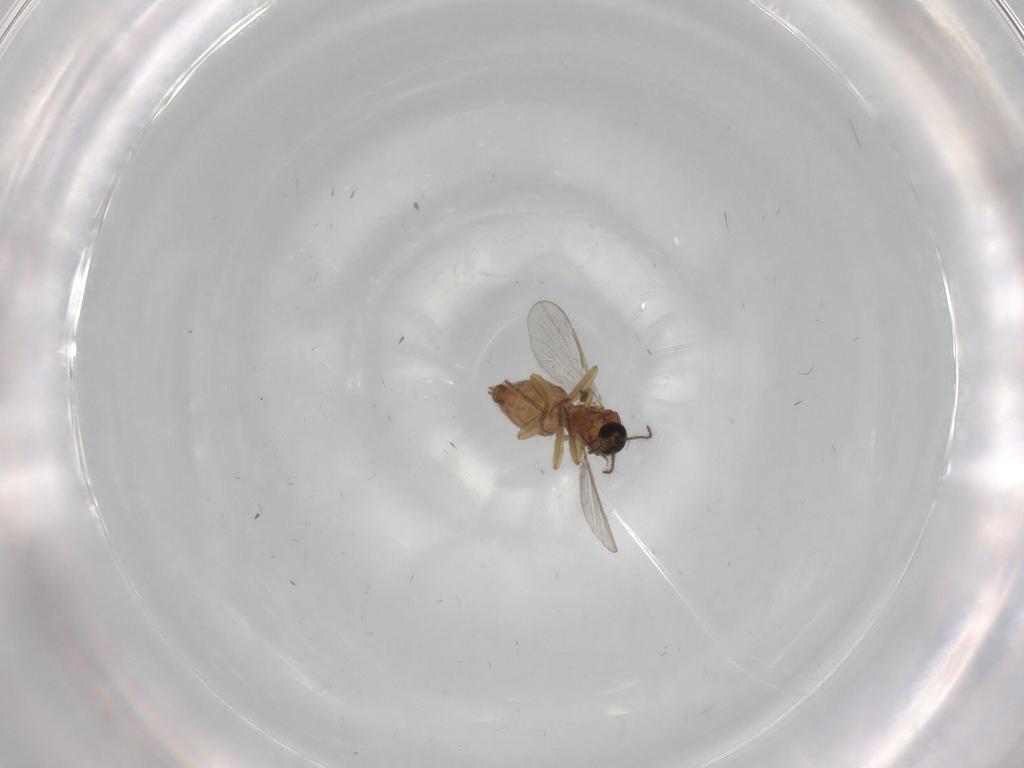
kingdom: Animalia
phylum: Arthropoda
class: Insecta
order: Diptera
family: Ceratopogonidae
